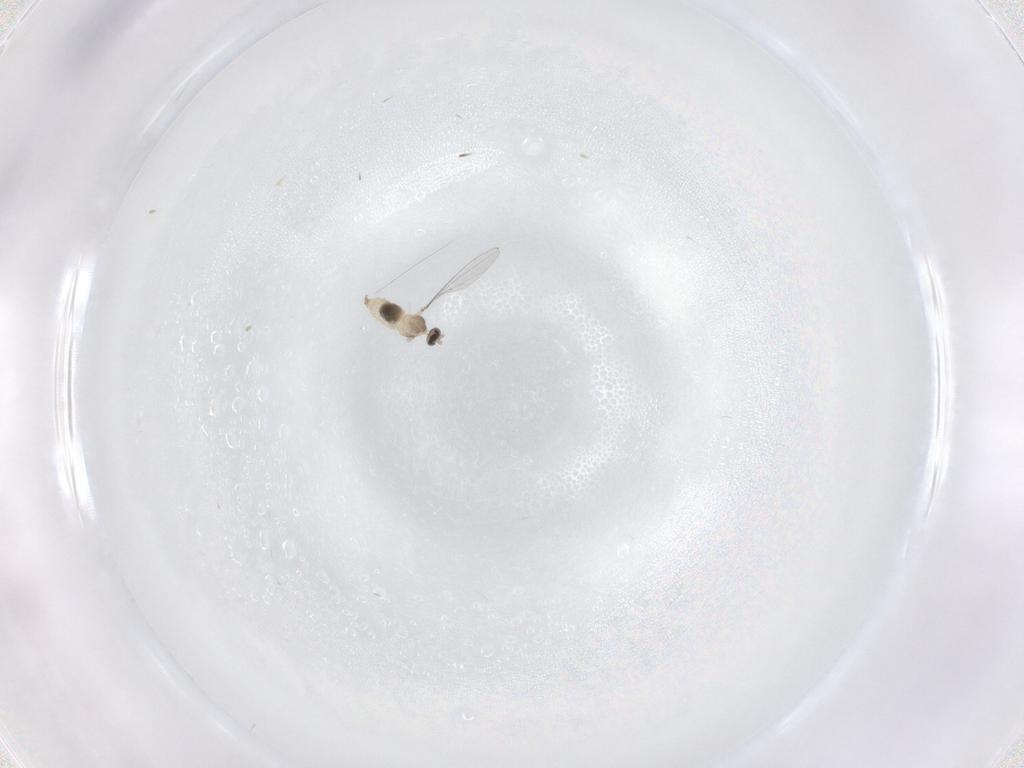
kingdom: Animalia
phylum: Arthropoda
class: Insecta
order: Diptera
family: Cecidomyiidae
